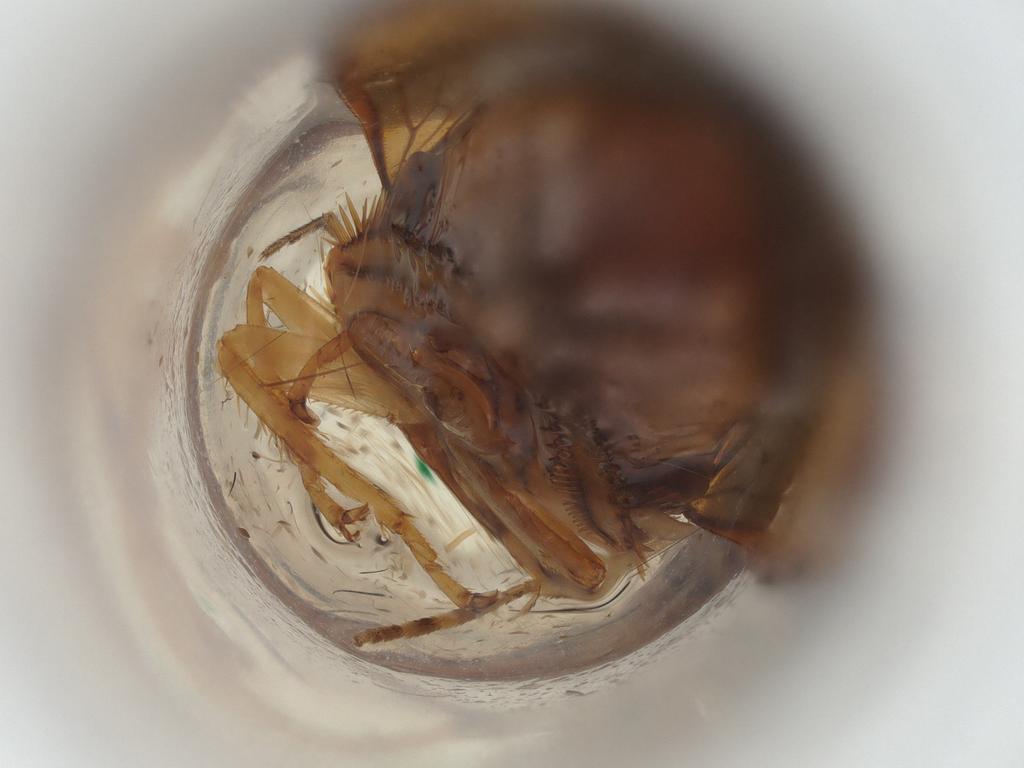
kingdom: Animalia
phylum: Arthropoda
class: Insecta
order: Lepidoptera
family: Gelechiidae
